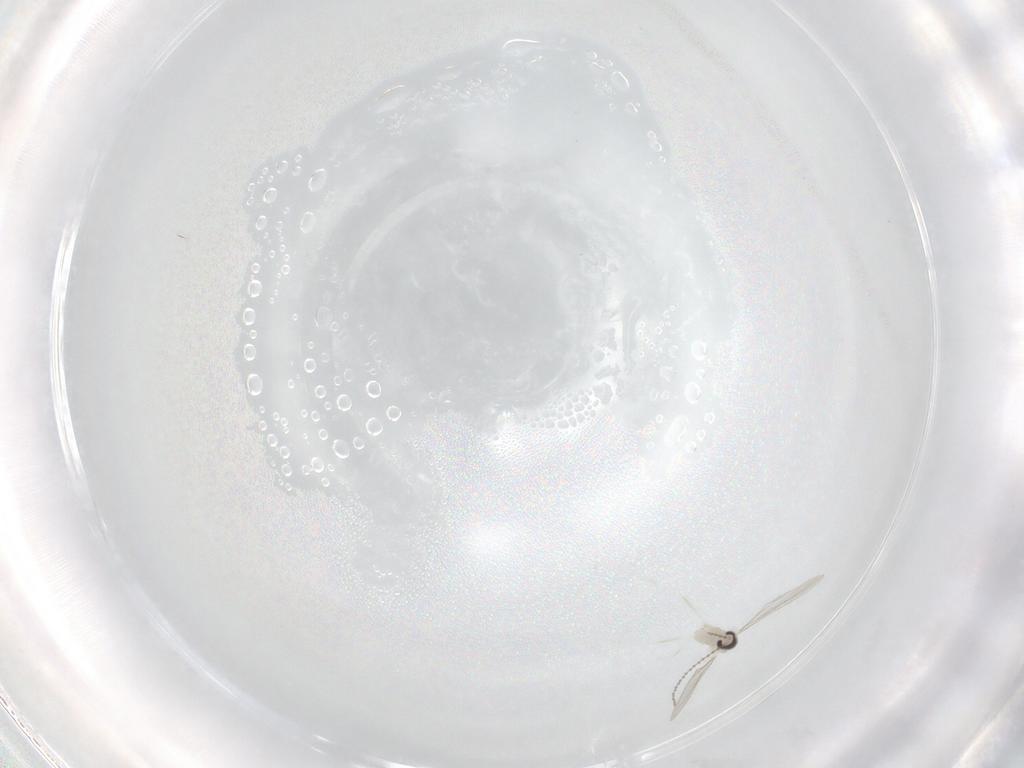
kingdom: Animalia
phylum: Arthropoda
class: Insecta
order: Diptera
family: Cecidomyiidae
